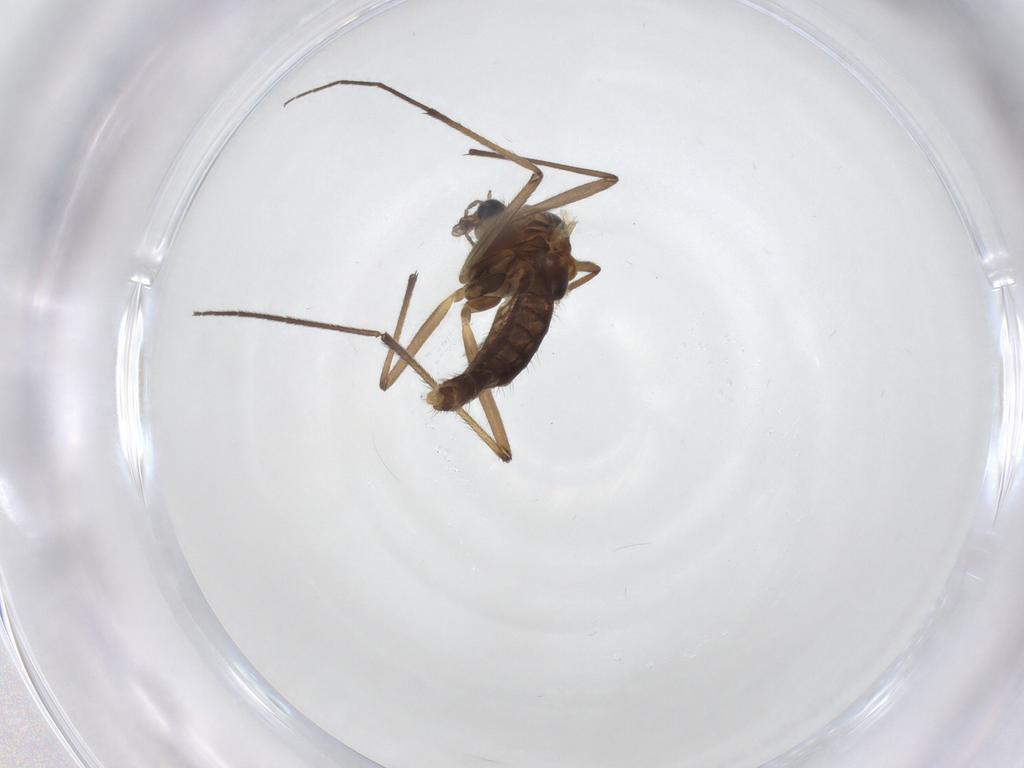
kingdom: Animalia
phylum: Arthropoda
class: Insecta
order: Diptera
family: Chironomidae
